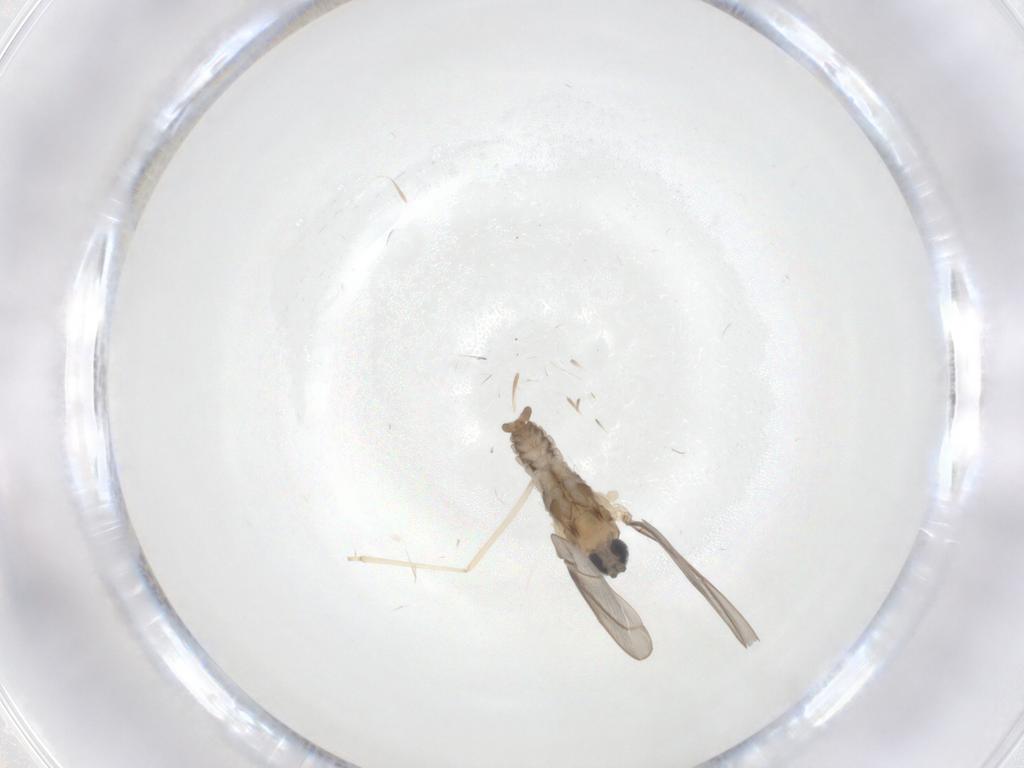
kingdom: Animalia
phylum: Arthropoda
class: Insecta
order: Diptera
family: Cecidomyiidae
